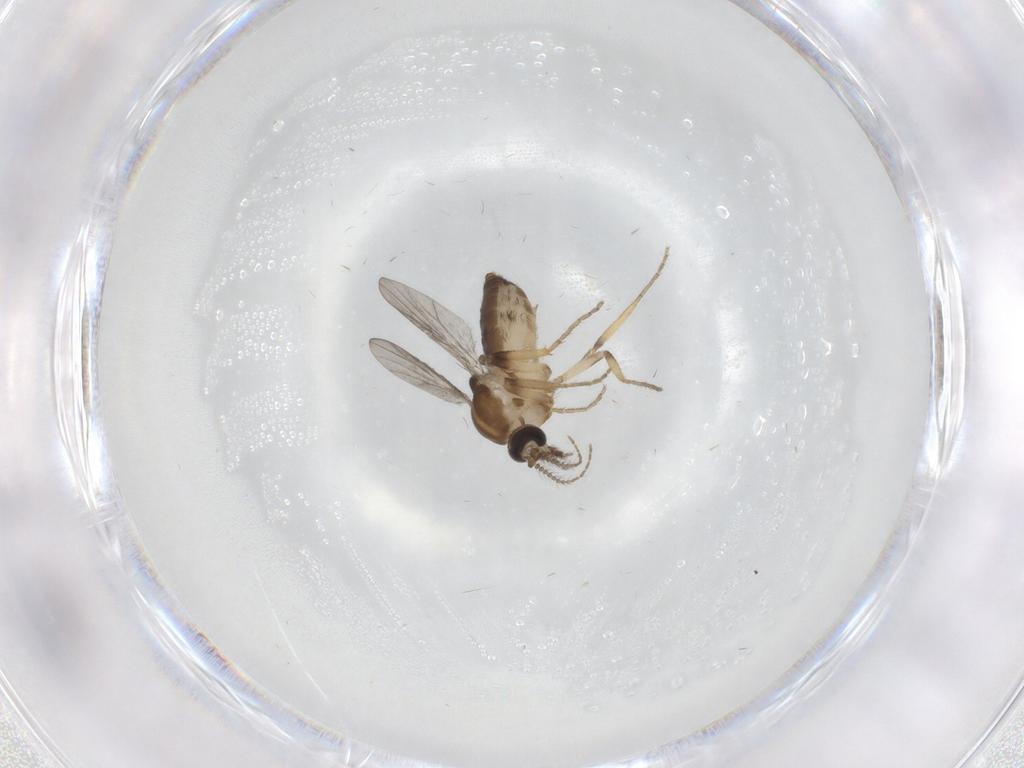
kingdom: Animalia
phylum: Arthropoda
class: Insecta
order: Diptera
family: Ceratopogonidae
